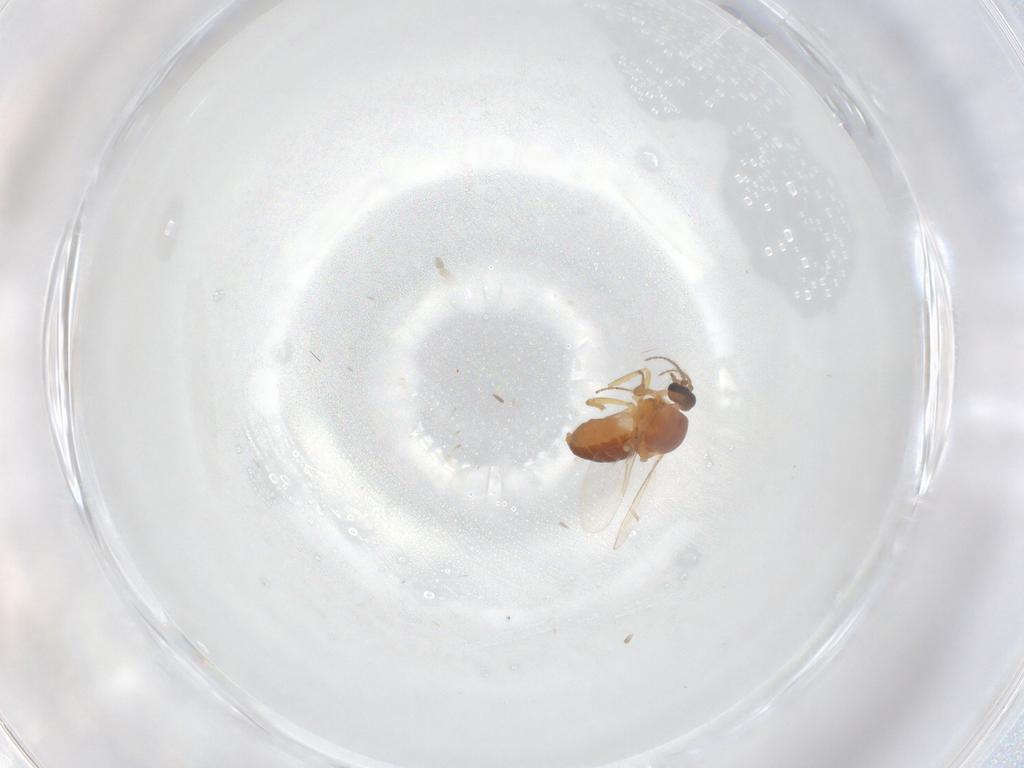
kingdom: Animalia
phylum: Arthropoda
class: Insecta
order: Diptera
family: Ceratopogonidae
